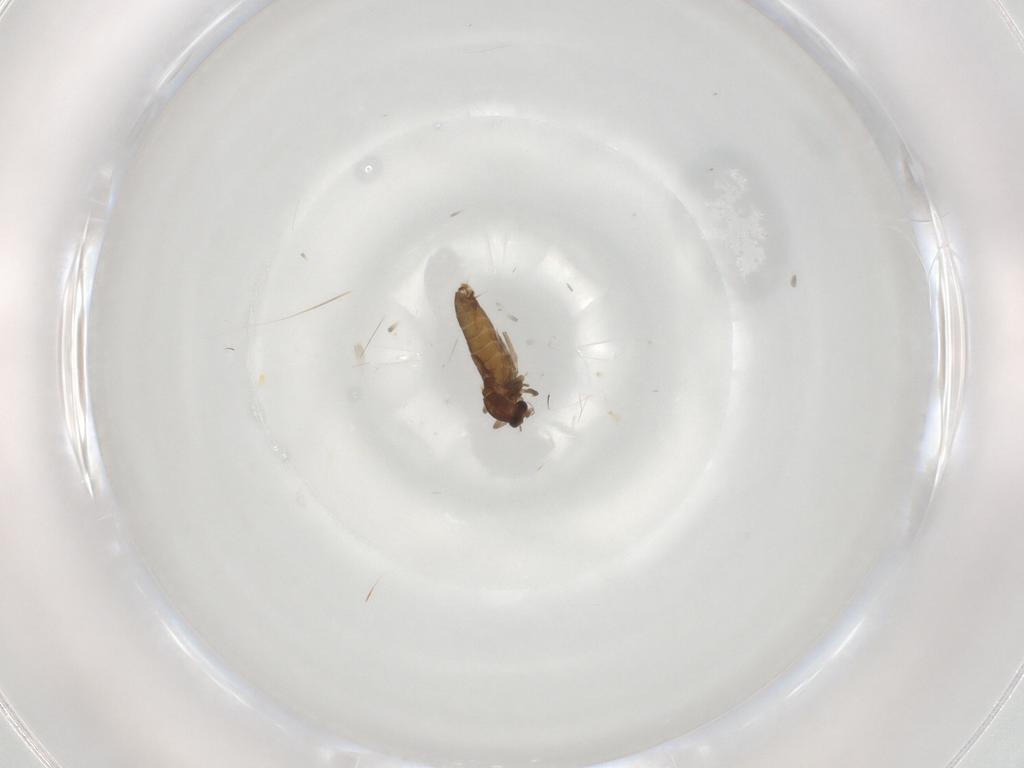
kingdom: Animalia
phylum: Arthropoda
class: Insecta
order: Diptera
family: Chironomidae
